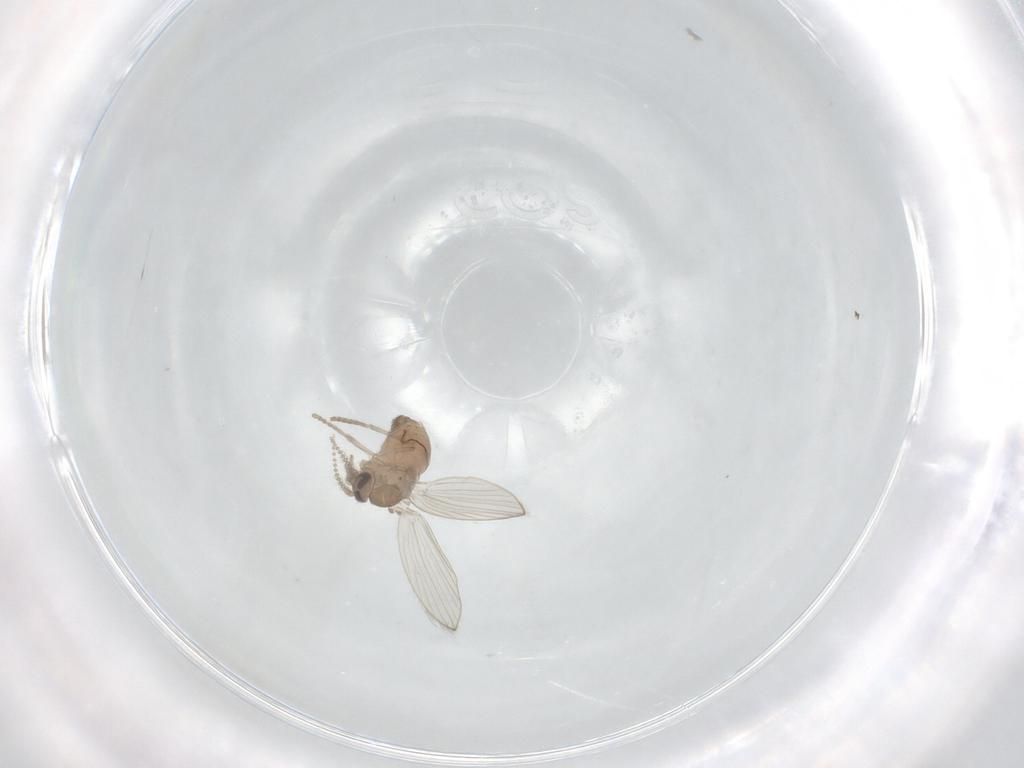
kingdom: Animalia
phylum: Arthropoda
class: Insecta
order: Diptera
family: Psychodidae
